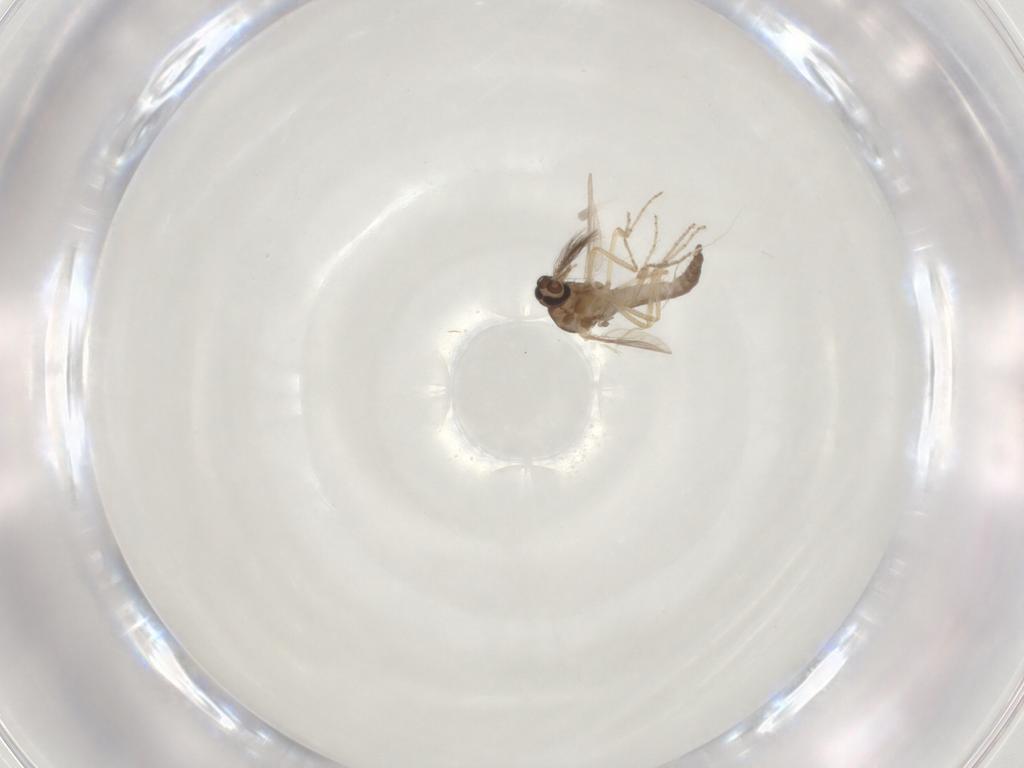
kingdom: Animalia
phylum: Arthropoda
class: Insecta
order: Diptera
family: Ceratopogonidae
